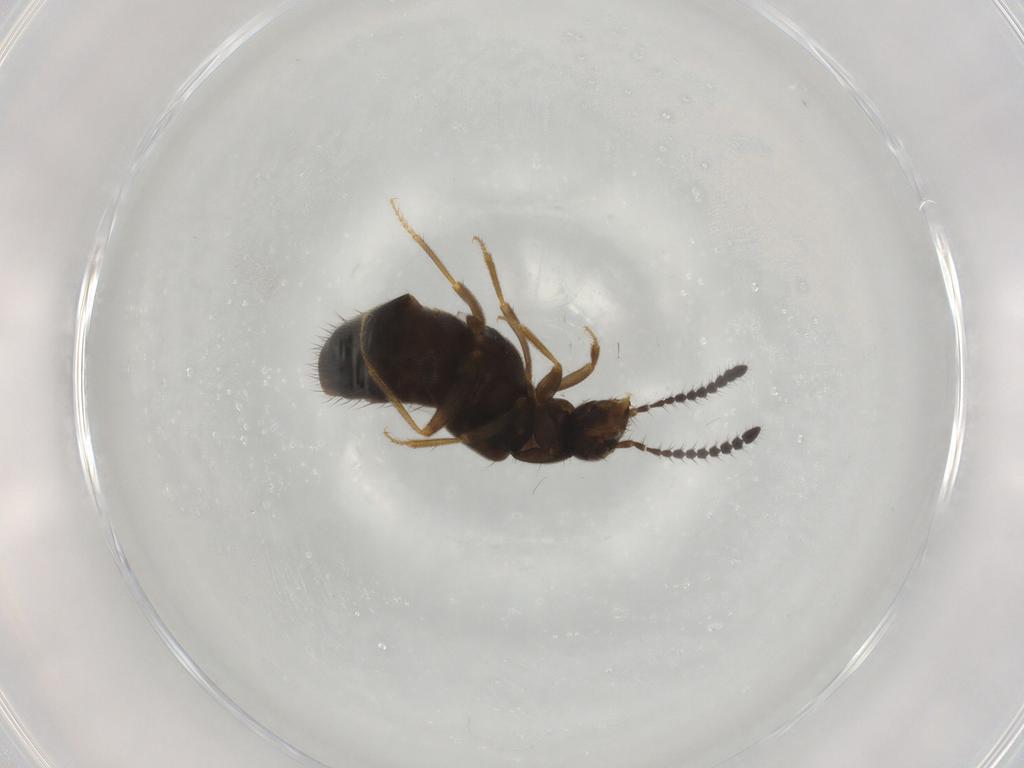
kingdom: Animalia
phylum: Arthropoda
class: Insecta
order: Coleoptera
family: Staphylinidae
